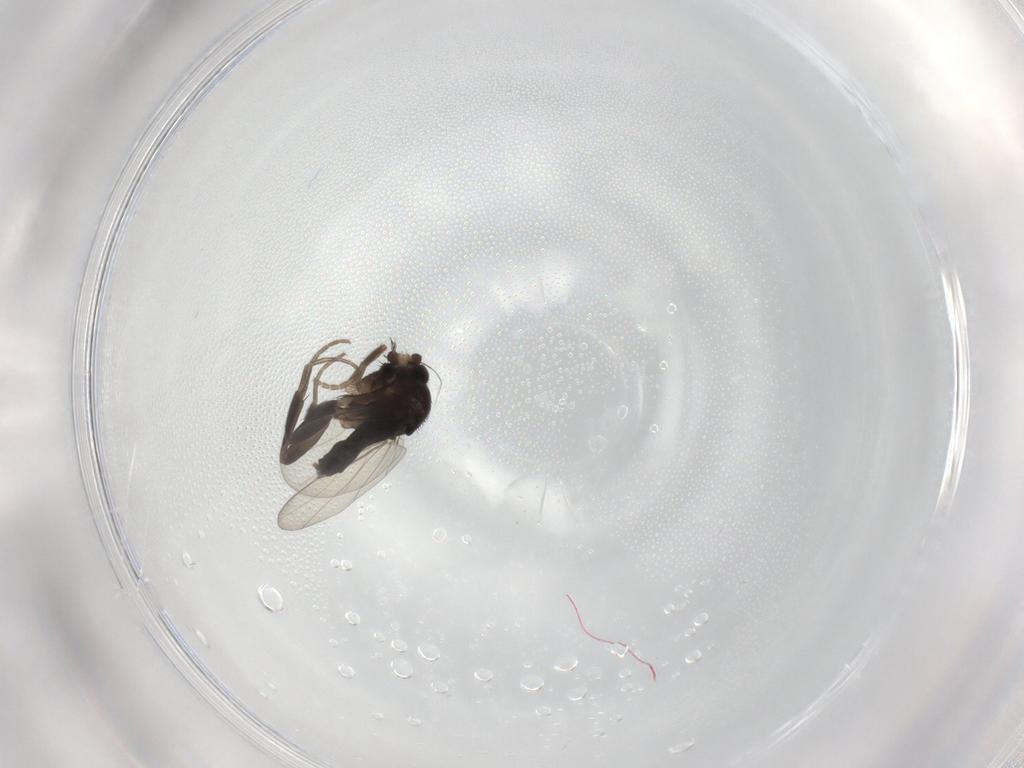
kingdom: Animalia
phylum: Arthropoda
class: Insecta
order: Diptera
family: Phoridae
